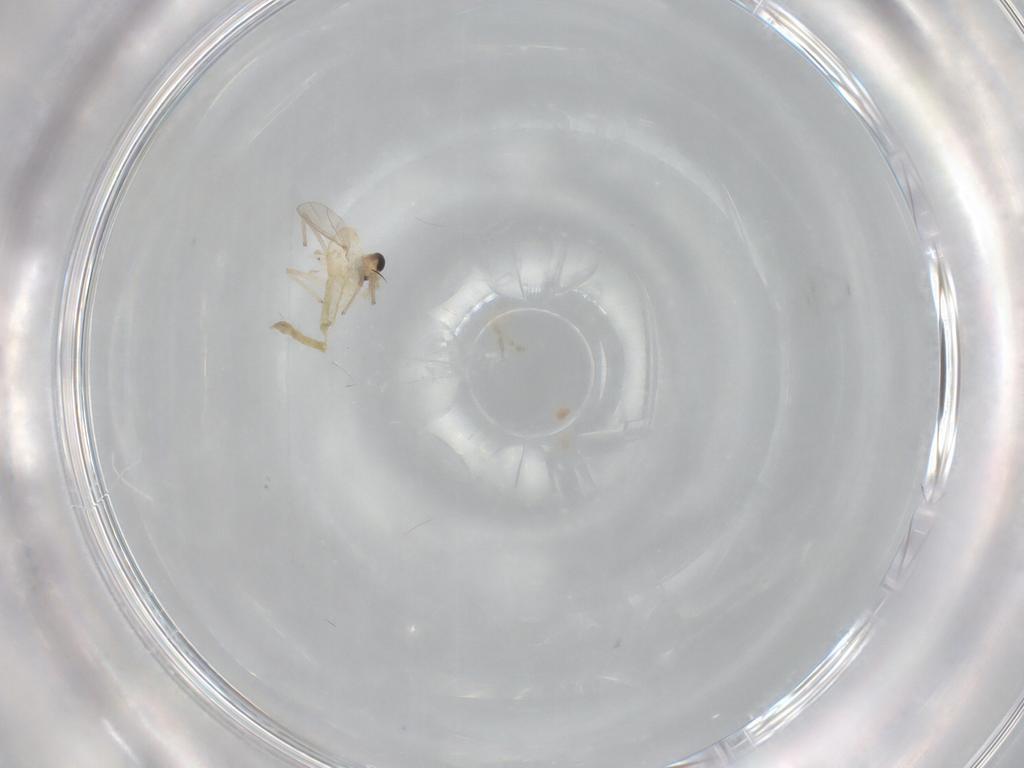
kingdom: Animalia
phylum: Arthropoda
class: Insecta
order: Diptera
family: Chironomidae
